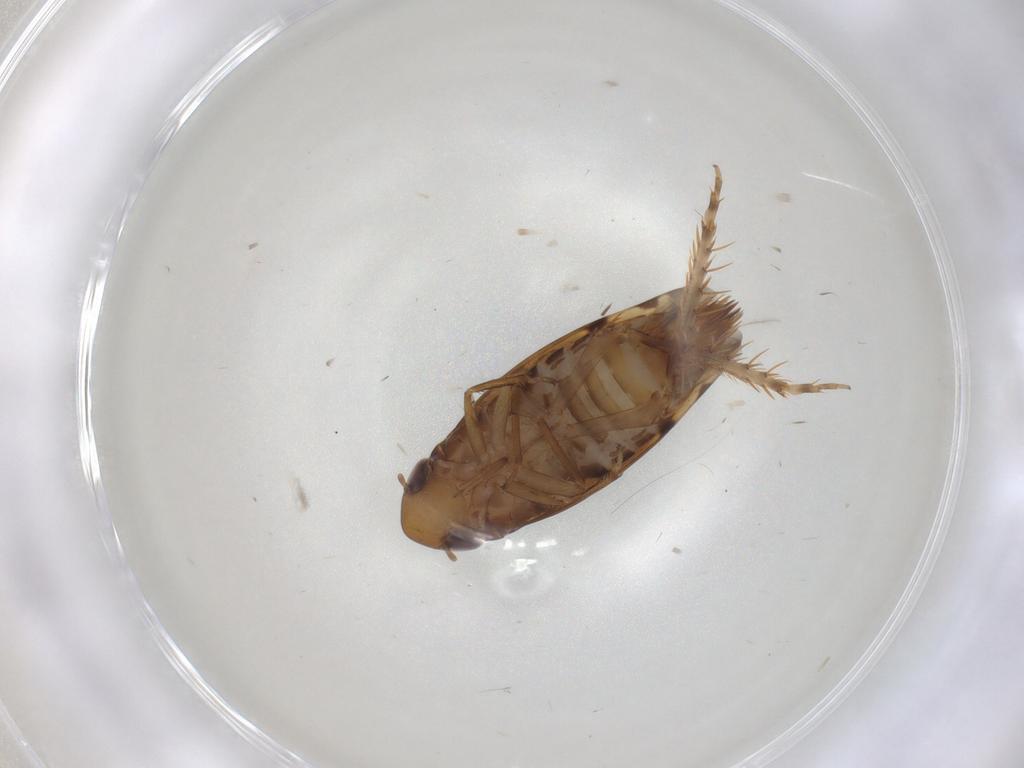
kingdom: Animalia
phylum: Arthropoda
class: Insecta
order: Hemiptera
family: Cicadellidae
